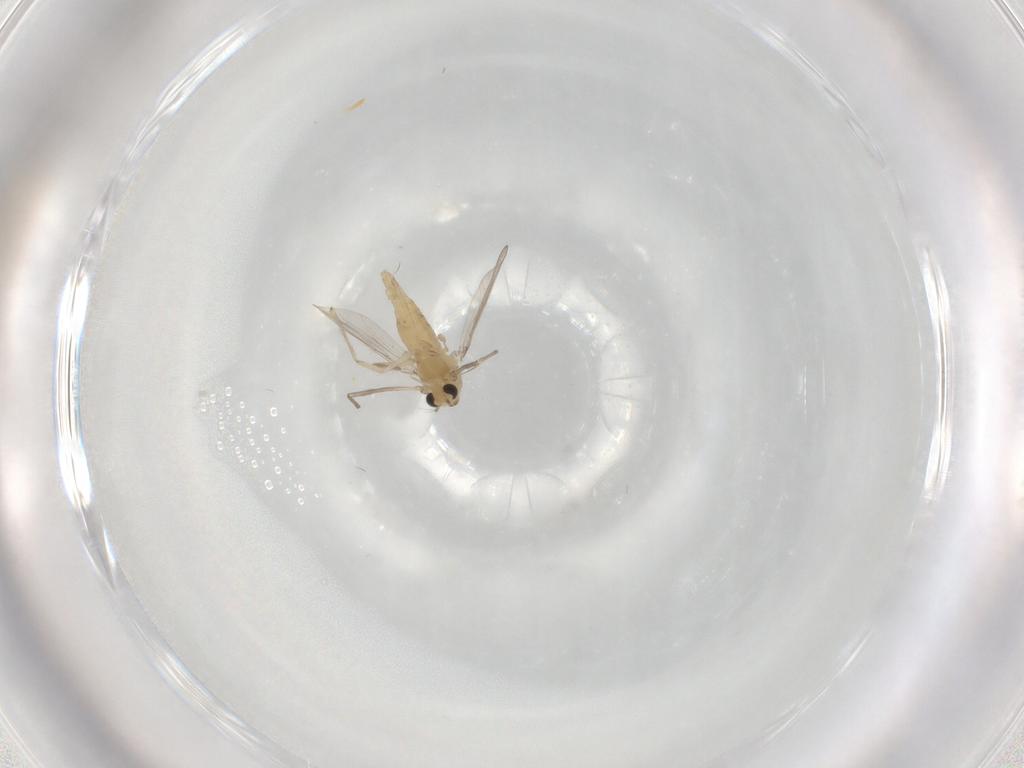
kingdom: Animalia
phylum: Arthropoda
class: Insecta
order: Diptera
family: Chironomidae
